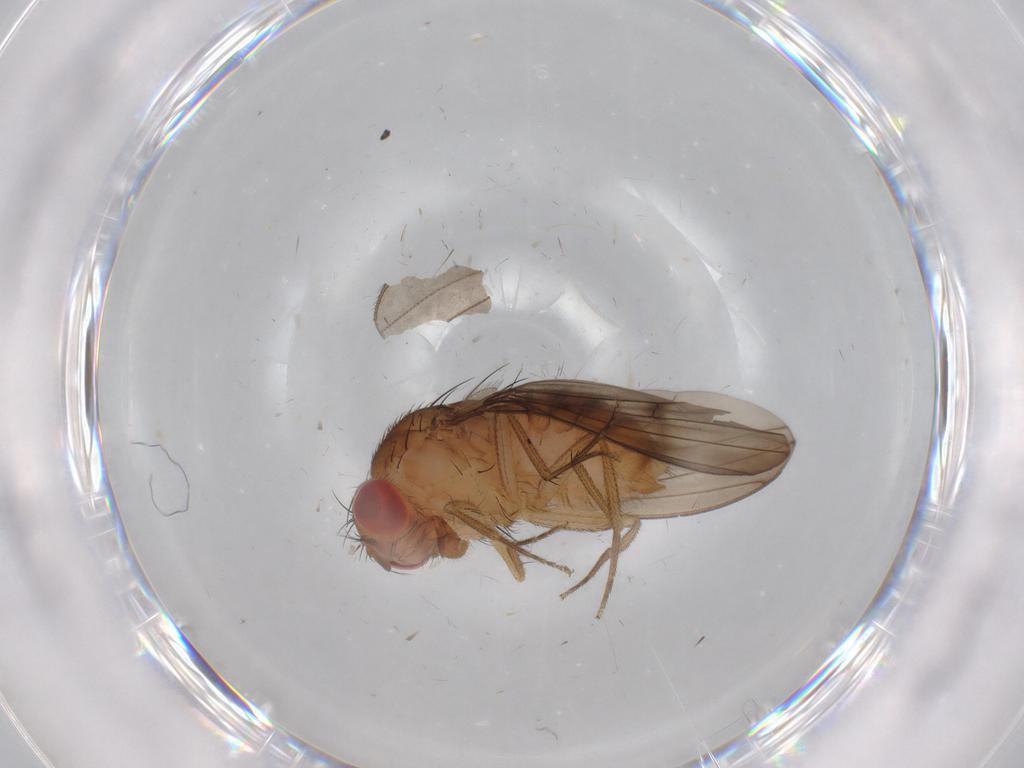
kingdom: Animalia
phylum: Arthropoda
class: Insecta
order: Diptera
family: Drosophilidae
